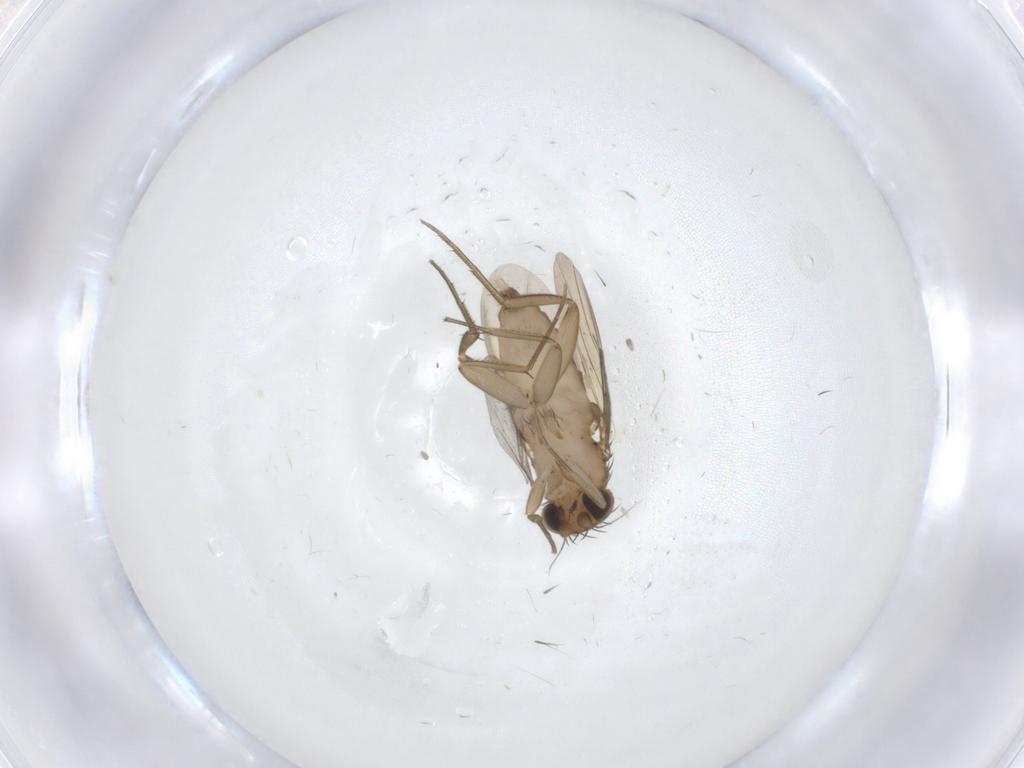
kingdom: Animalia
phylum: Arthropoda
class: Insecta
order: Diptera
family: Phoridae
